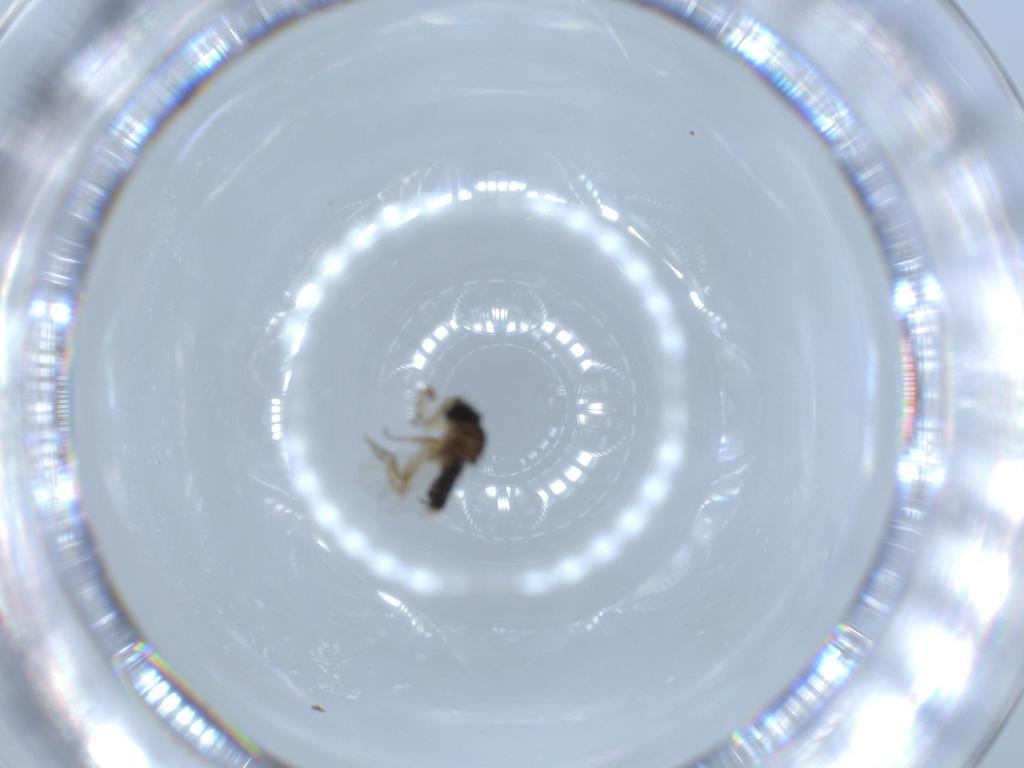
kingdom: Animalia
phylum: Arthropoda
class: Insecta
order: Diptera
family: Phoridae
